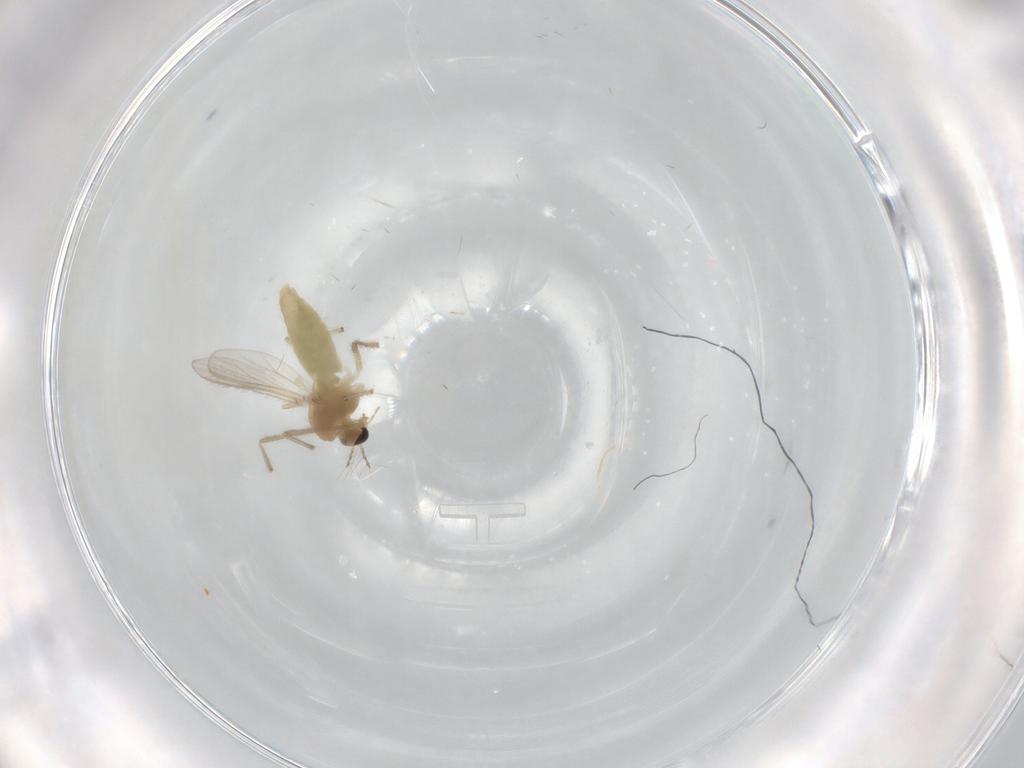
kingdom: Animalia
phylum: Arthropoda
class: Insecta
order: Diptera
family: Chironomidae
